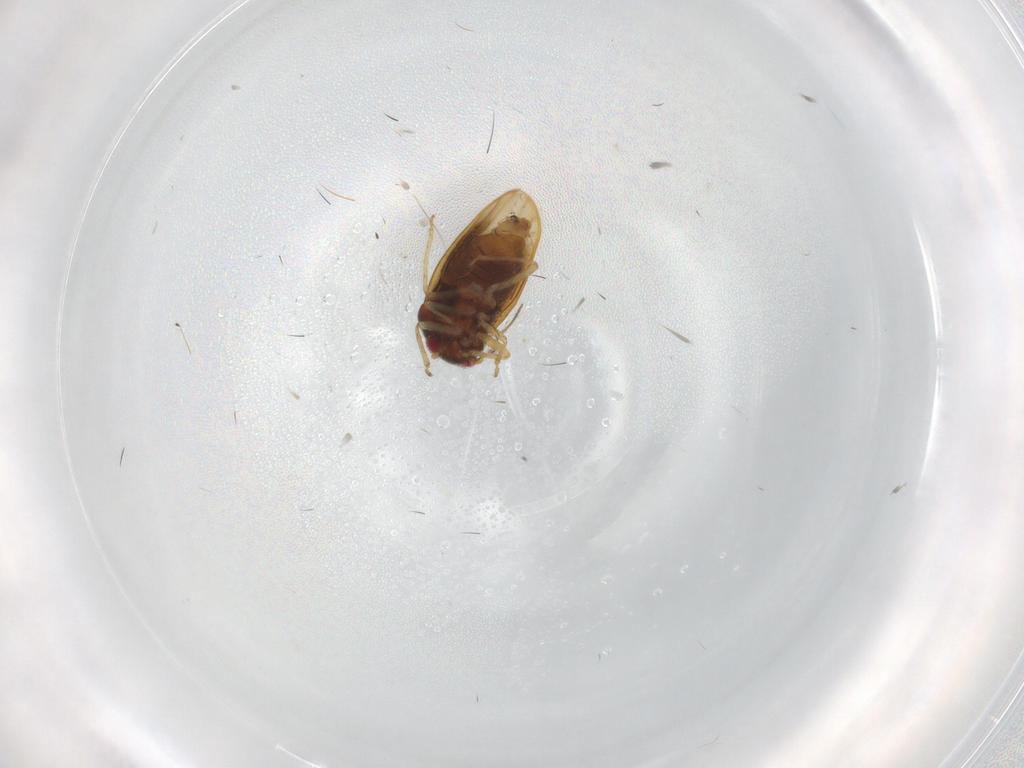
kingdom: Animalia
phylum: Arthropoda
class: Insecta
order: Hemiptera
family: Schizopteridae
